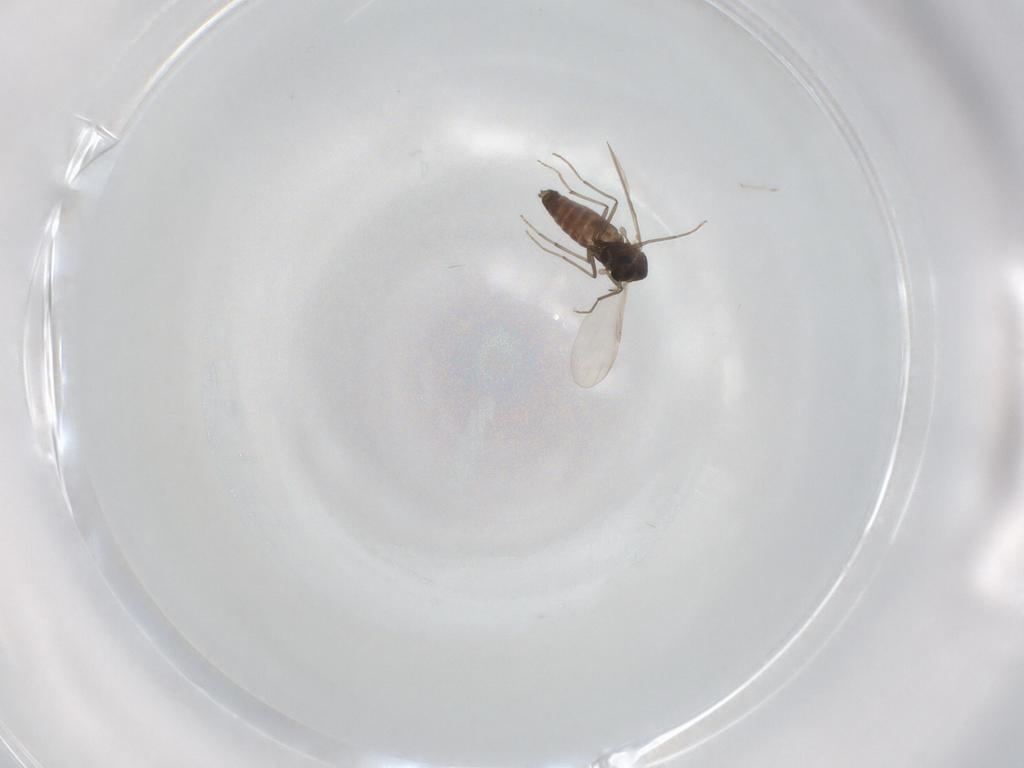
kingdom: Animalia
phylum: Arthropoda
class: Insecta
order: Diptera
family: Chironomidae
